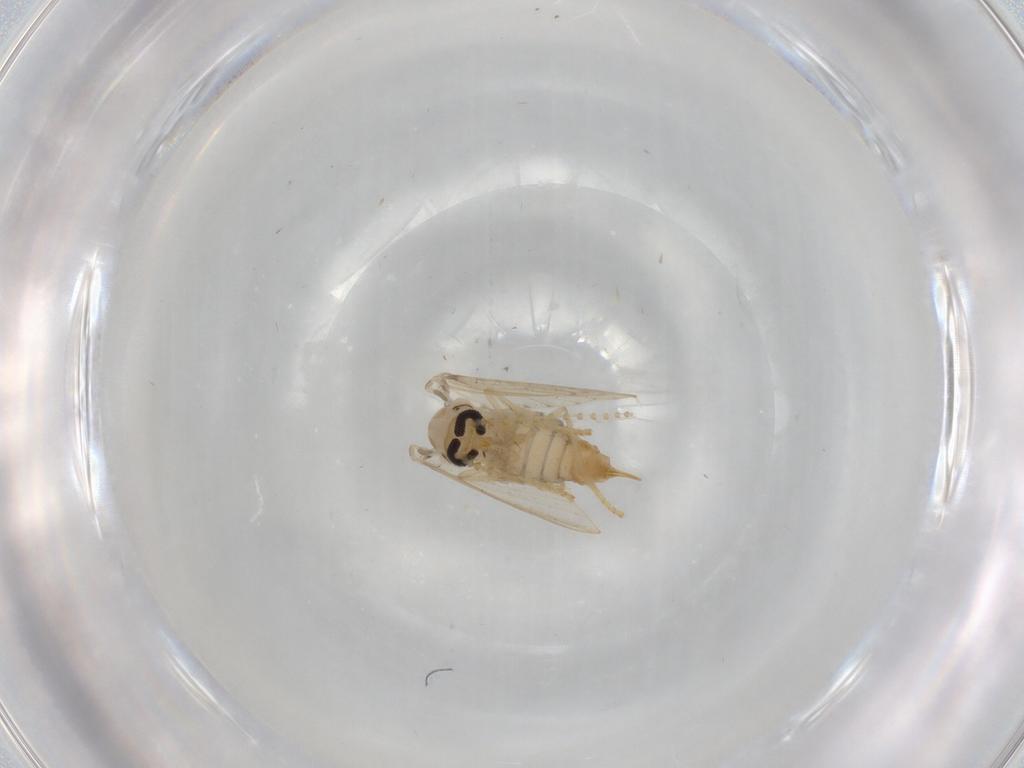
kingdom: Animalia
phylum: Arthropoda
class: Insecta
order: Diptera
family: Psychodidae
